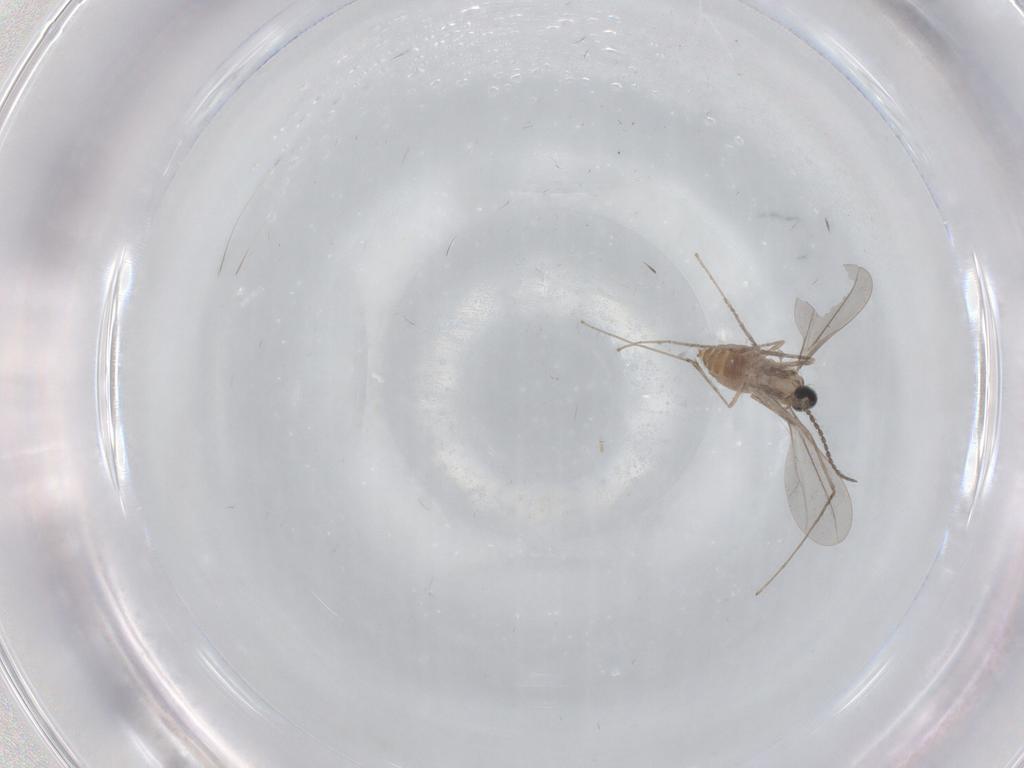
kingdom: Animalia
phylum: Arthropoda
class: Insecta
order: Diptera
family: Cecidomyiidae
